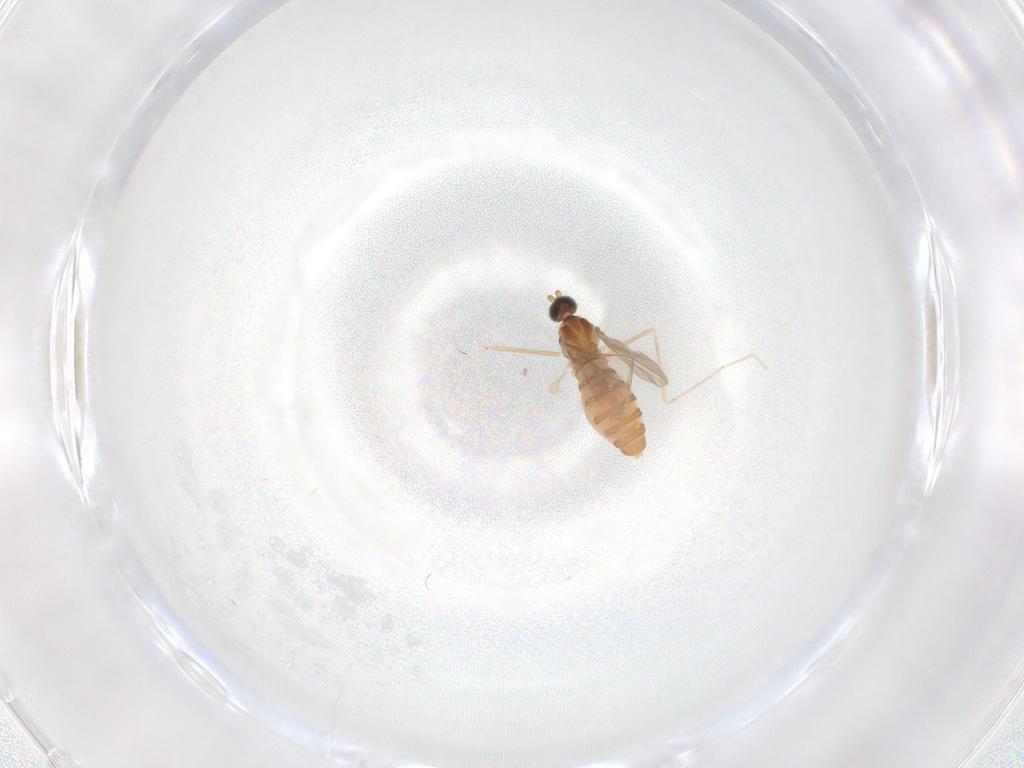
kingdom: Animalia
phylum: Arthropoda
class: Insecta
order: Diptera
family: Cecidomyiidae
